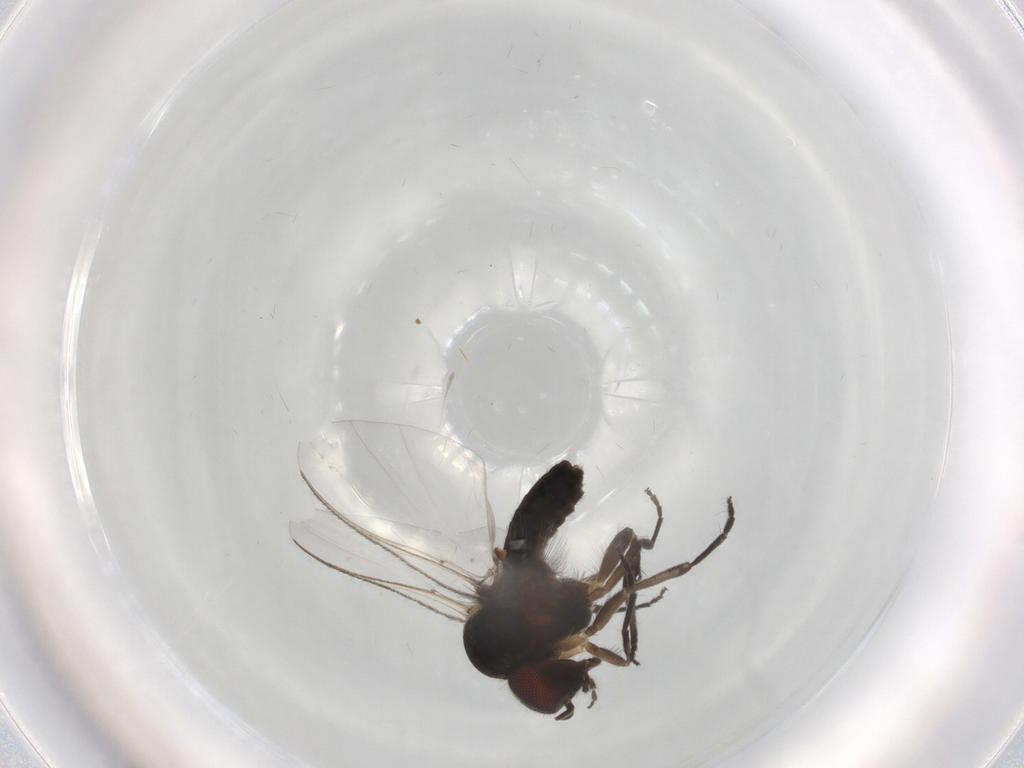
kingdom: Animalia
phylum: Arthropoda
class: Insecta
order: Diptera
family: Simuliidae
